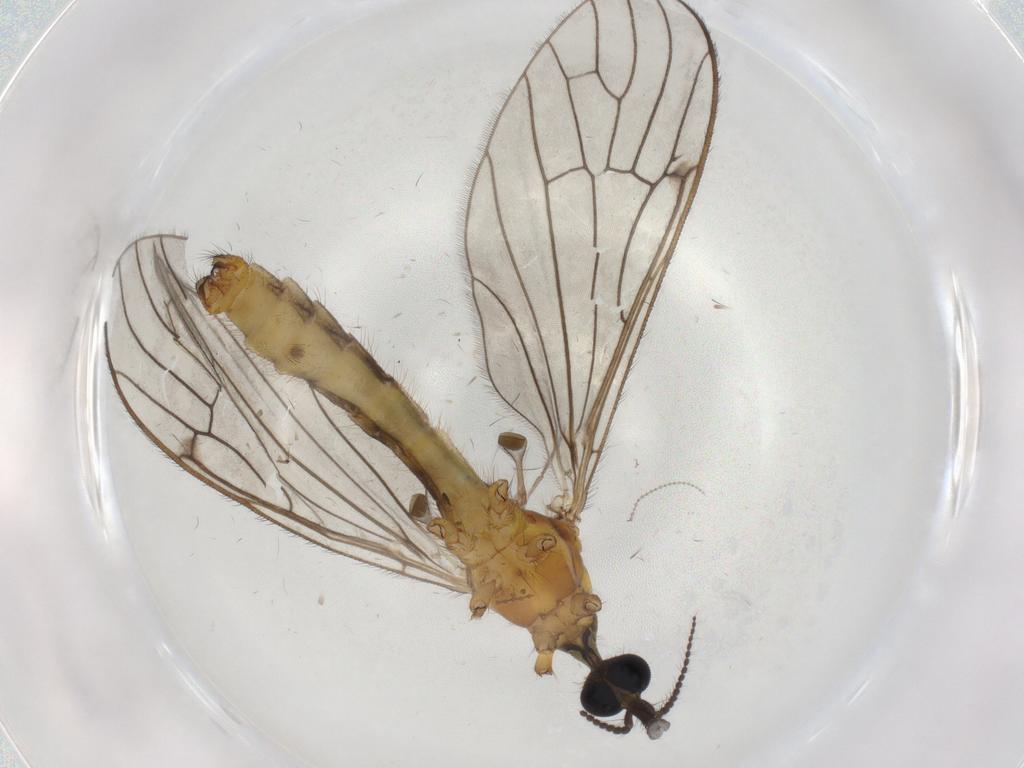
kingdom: Animalia
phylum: Arthropoda
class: Insecta
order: Diptera
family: Limoniidae
